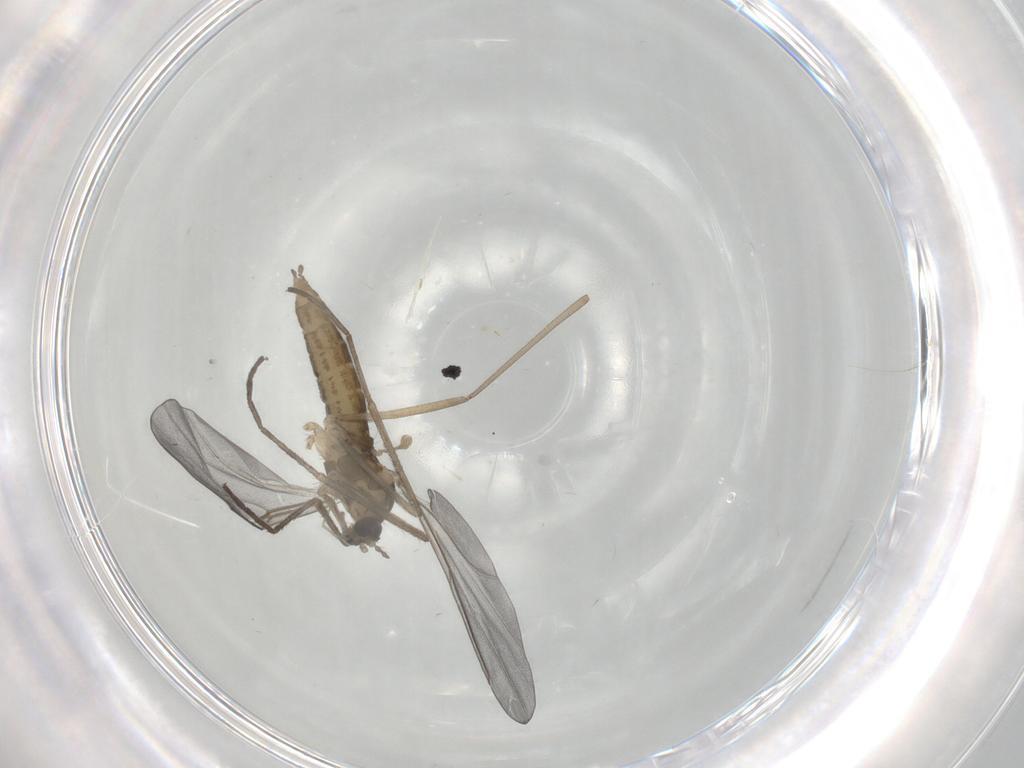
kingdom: Animalia
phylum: Arthropoda
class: Insecta
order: Diptera
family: Cecidomyiidae
